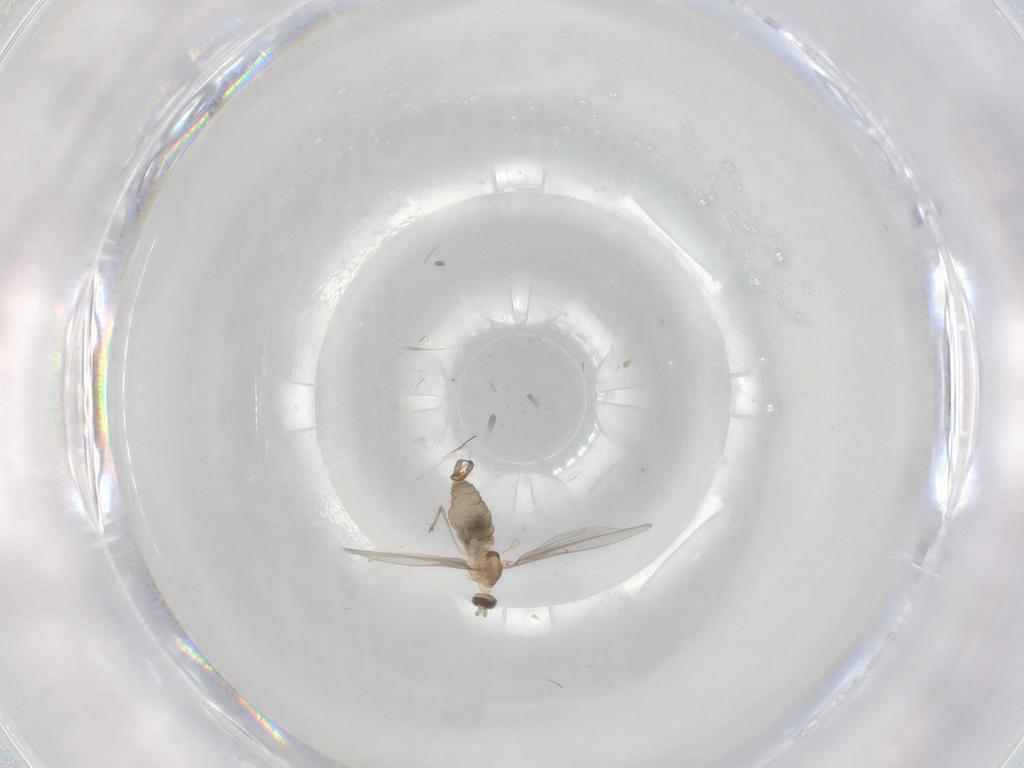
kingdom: Animalia
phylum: Arthropoda
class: Insecta
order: Diptera
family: Cecidomyiidae
